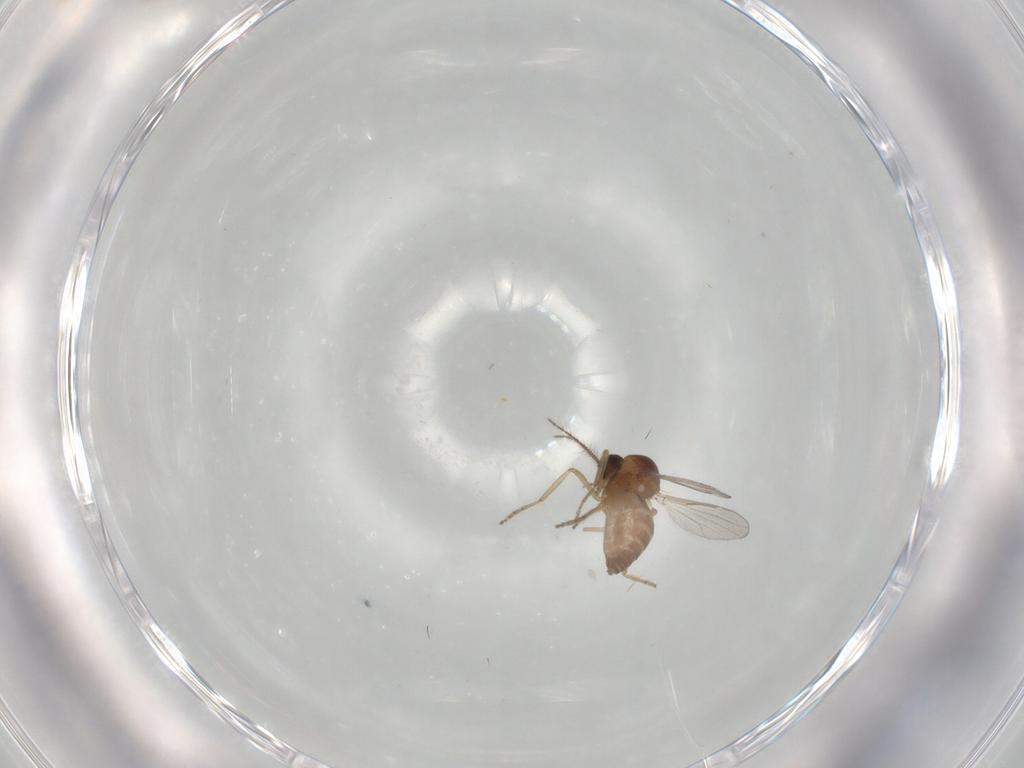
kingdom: Animalia
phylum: Arthropoda
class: Insecta
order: Diptera
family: Ceratopogonidae
